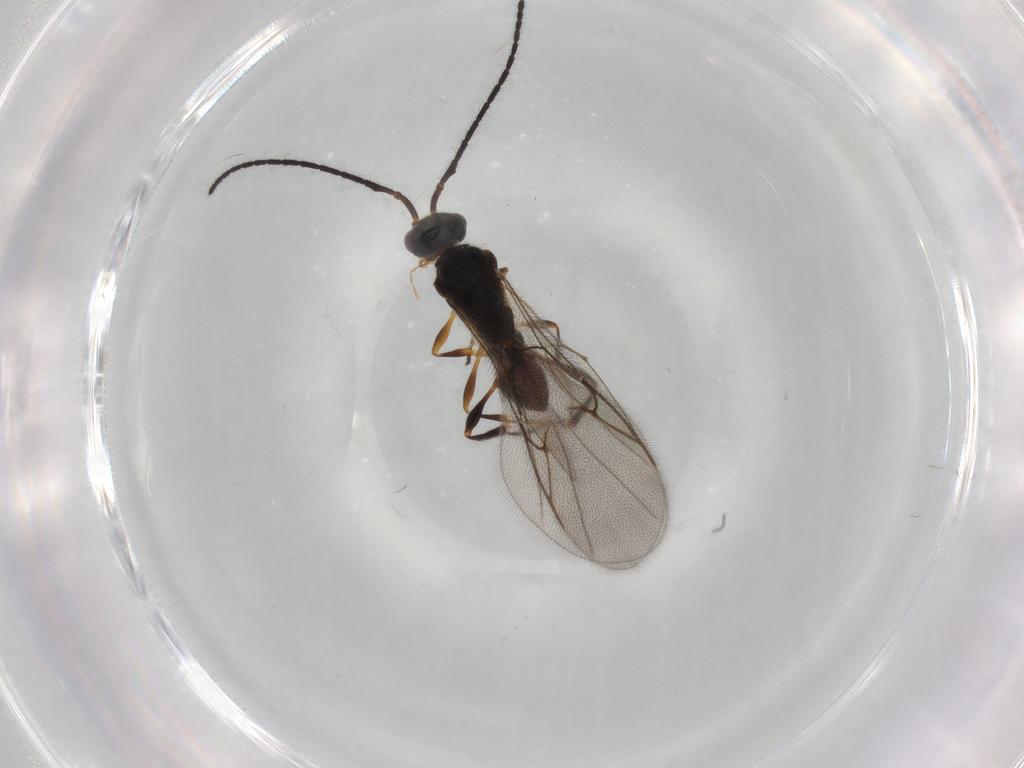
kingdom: Animalia
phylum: Arthropoda
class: Insecta
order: Hymenoptera
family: Diapriidae
